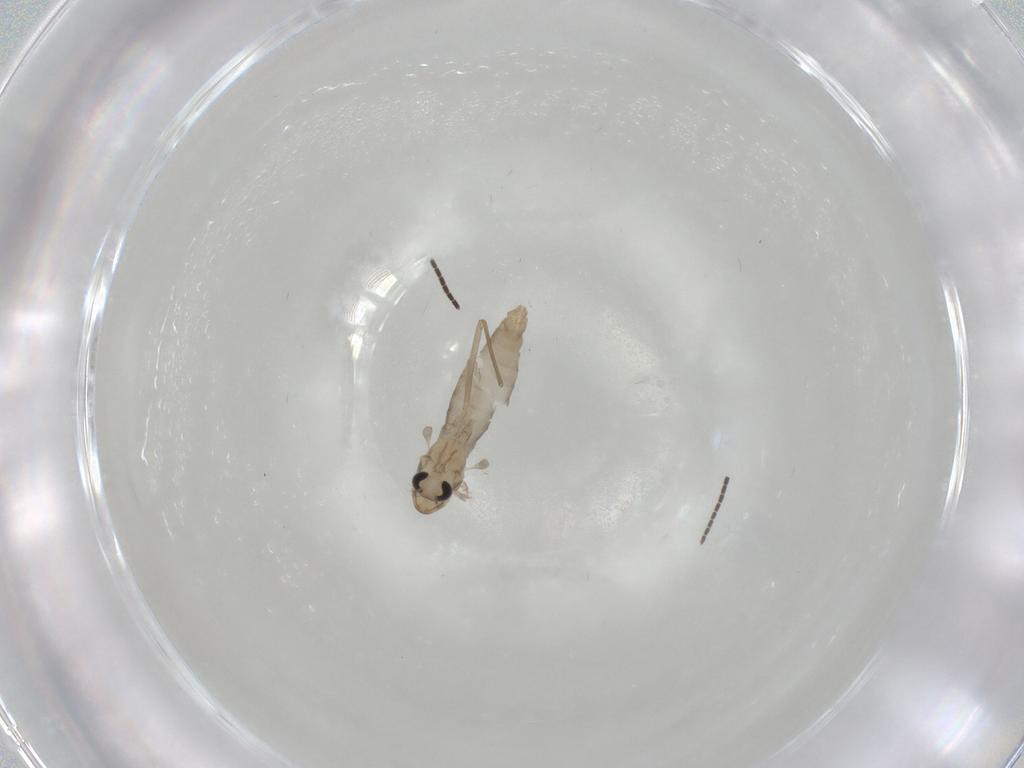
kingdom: Animalia
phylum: Arthropoda
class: Insecta
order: Diptera
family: Chironomidae
